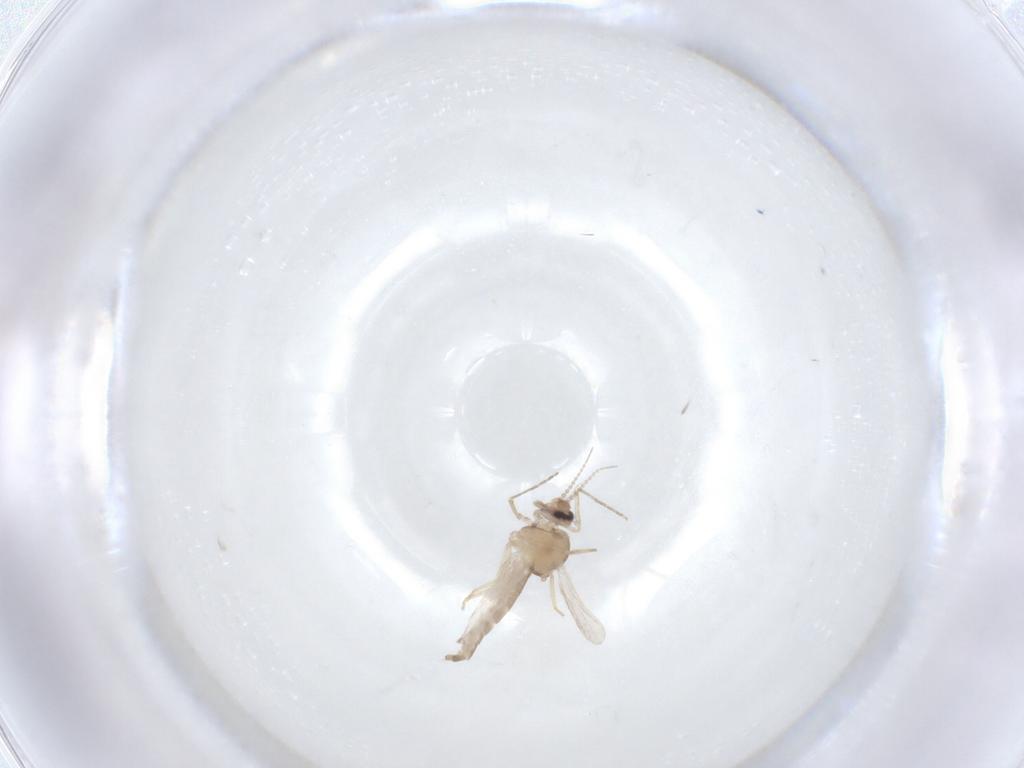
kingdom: Animalia
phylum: Arthropoda
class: Insecta
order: Diptera
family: Ceratopogonidae
